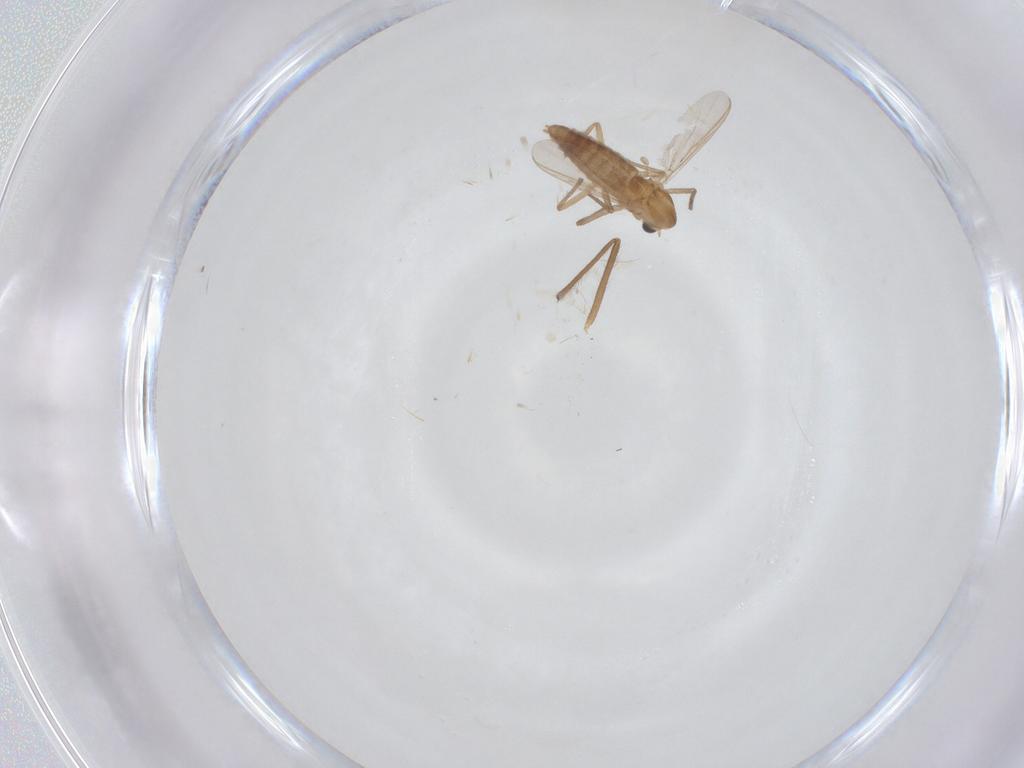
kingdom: Animalia
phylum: Arthropoda
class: Insecta
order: Diptera
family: Chironomidae
